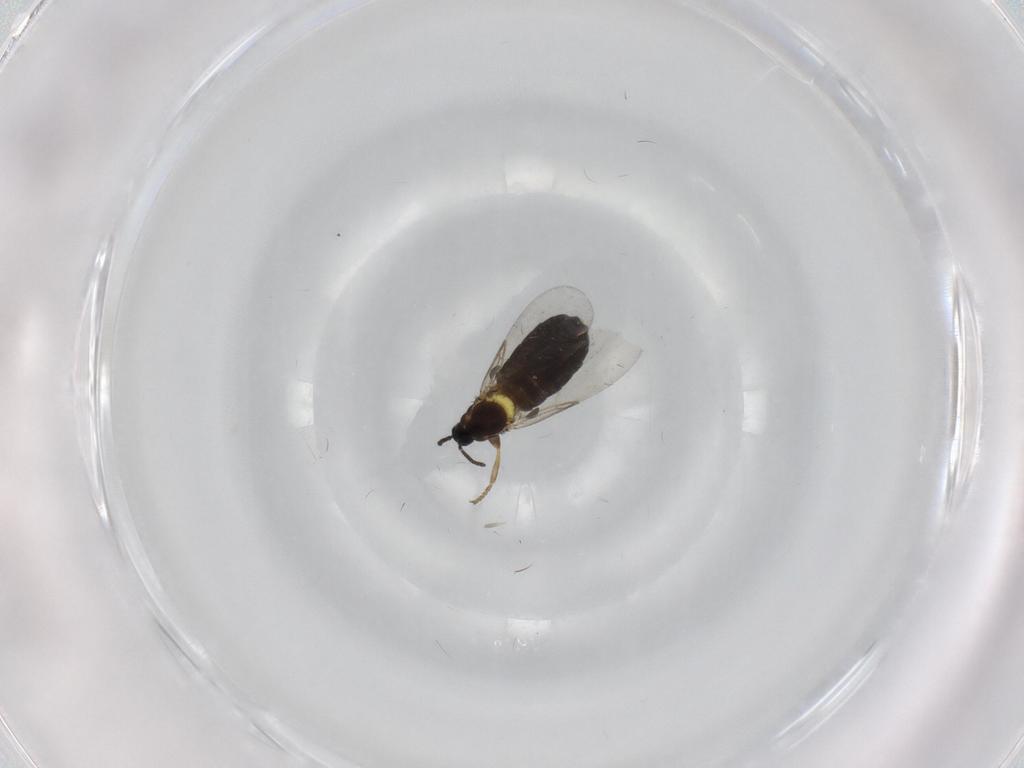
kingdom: Animalia
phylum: Arthropoda
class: Insecta
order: Diptera
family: Scatopsidae
